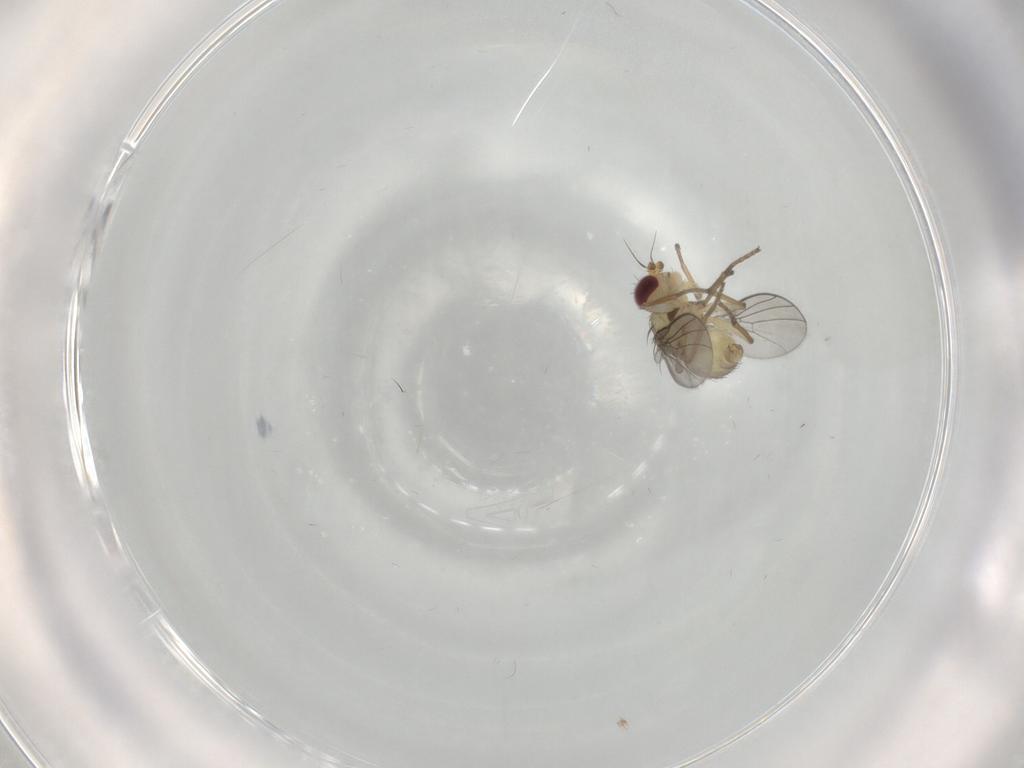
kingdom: Animalia
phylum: Arthropoda
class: Insecta
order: Diptera
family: Agromyzidae
